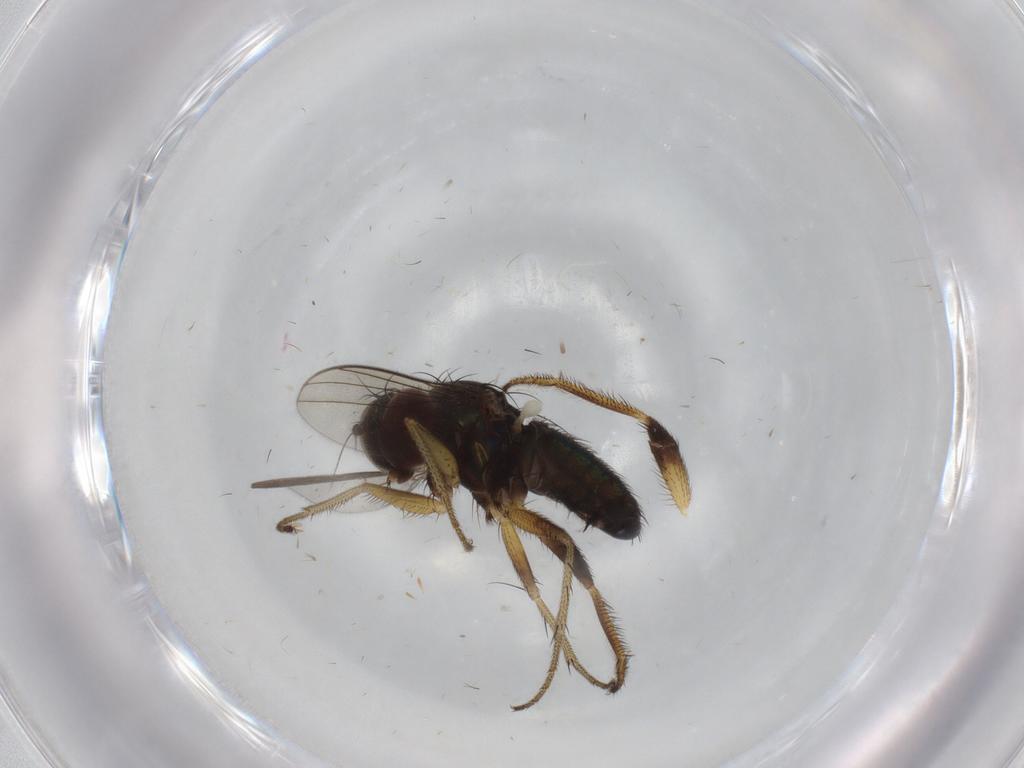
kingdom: Animalia
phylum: Arthropoda
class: Insecta
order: Diptera
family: Dolichopodidae
